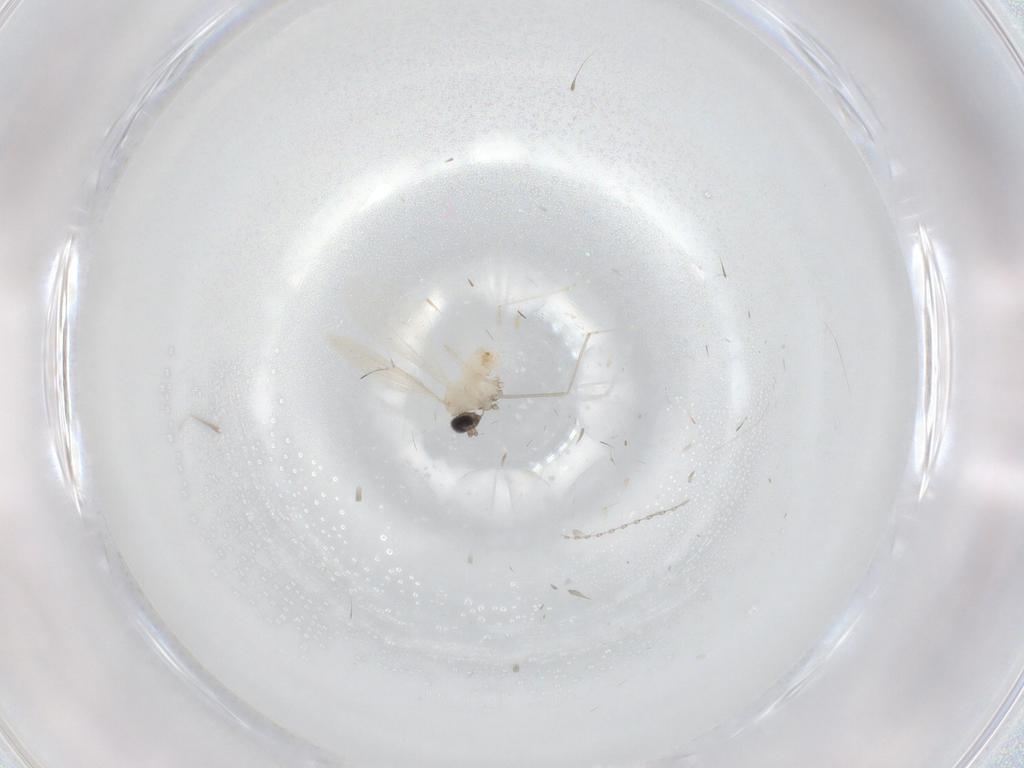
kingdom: Animalia
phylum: Arthropoda
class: Insecta
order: Diptera
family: Cecidomyiidae
